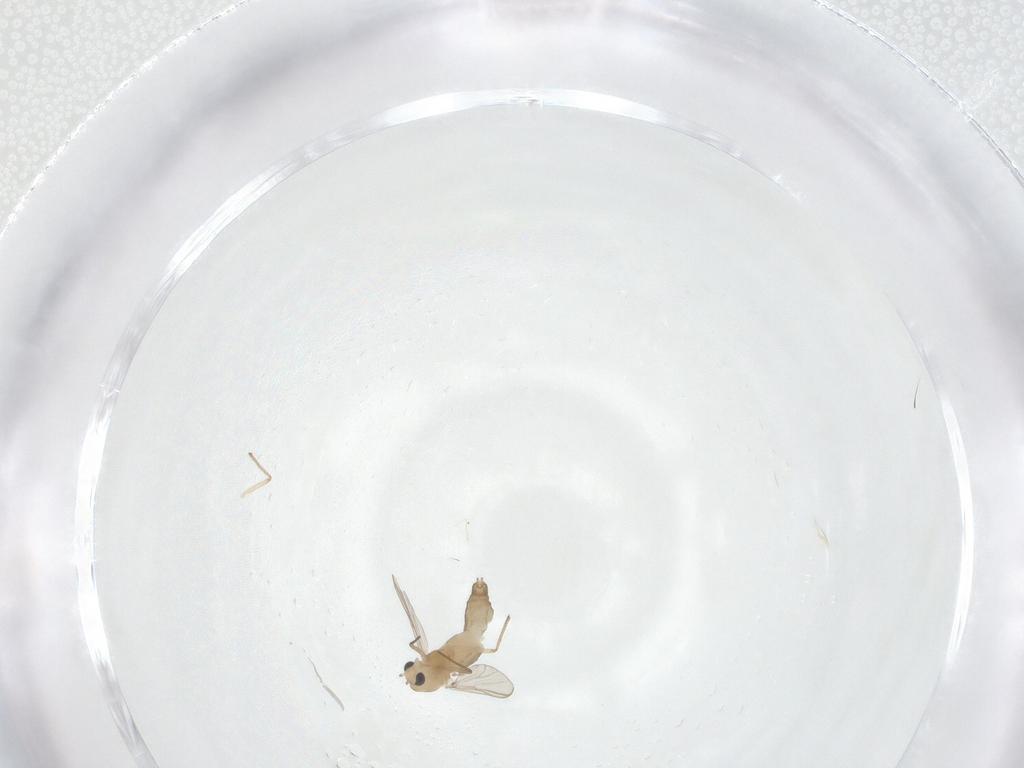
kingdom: Animalia
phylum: Arthropoda
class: Insecta
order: Diptera
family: Chironomidae
